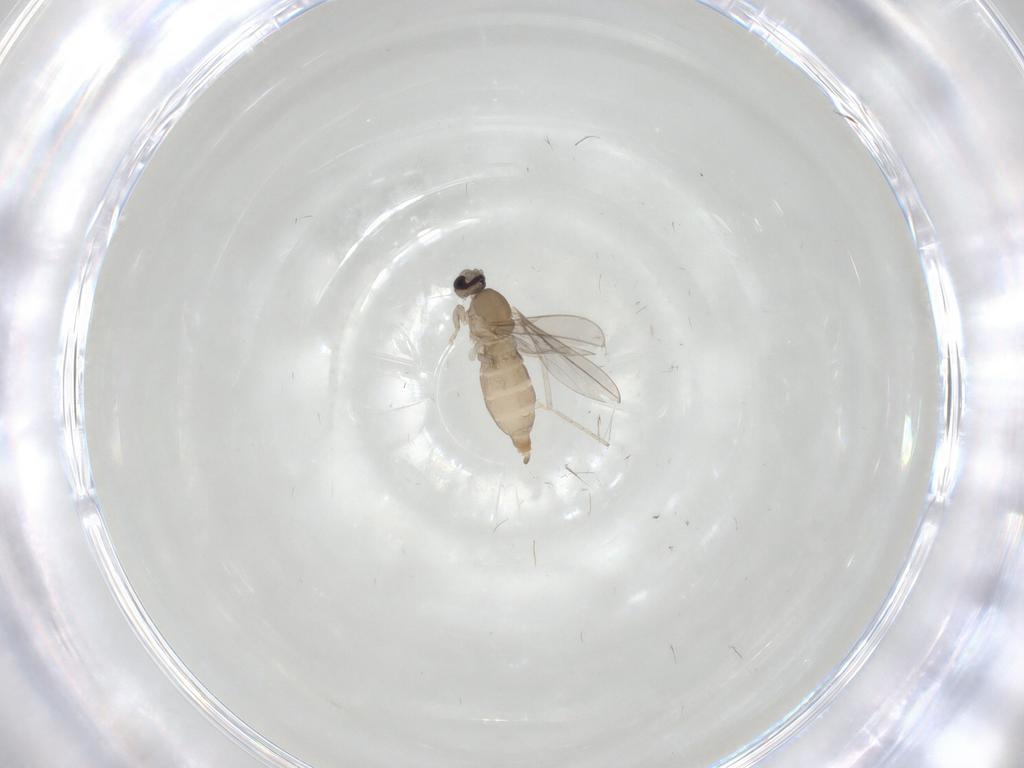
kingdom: Animalia
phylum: Arthropoda
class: Insecta
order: Diptera
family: Cecidomyiidae
